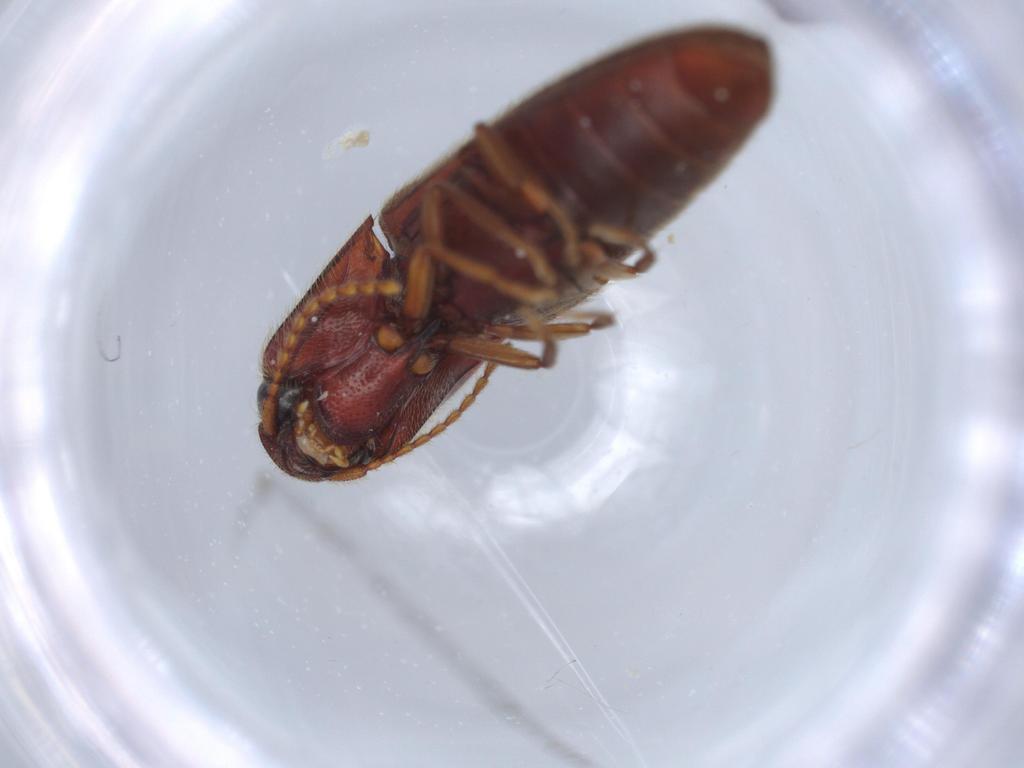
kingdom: Animalia
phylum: Arthropoda
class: Insecta
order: Coleoptera
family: Elateridae
